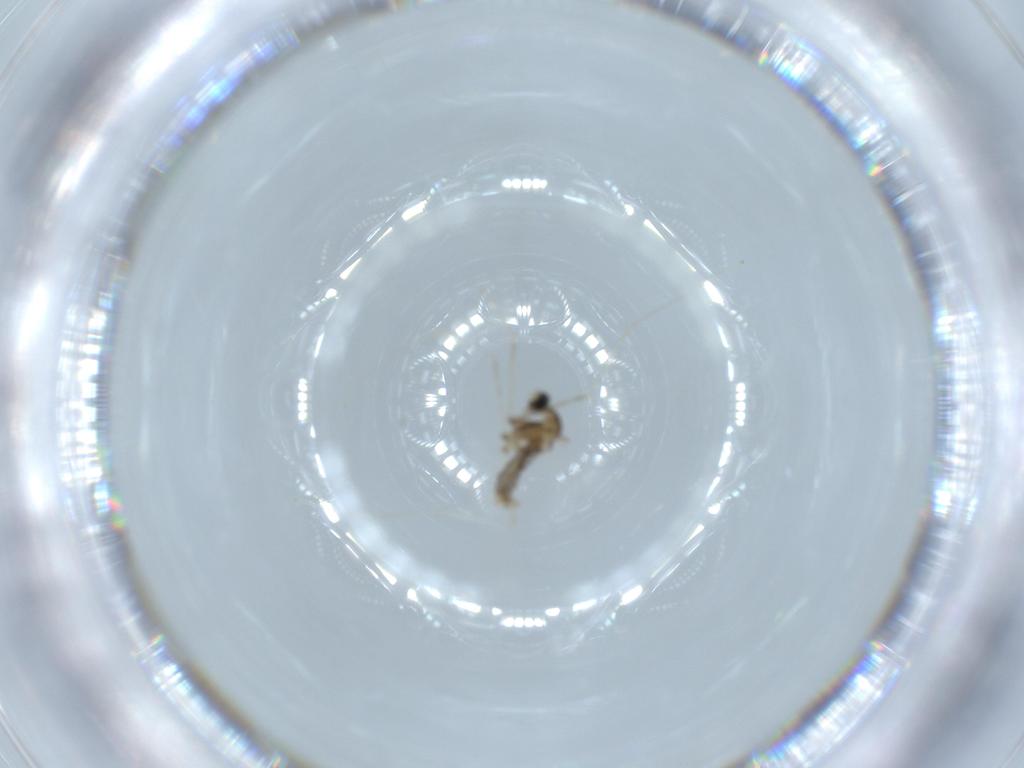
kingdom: Animalia
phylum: Arthropoda
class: Insecta
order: Diptera
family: Cecidomyiidae
